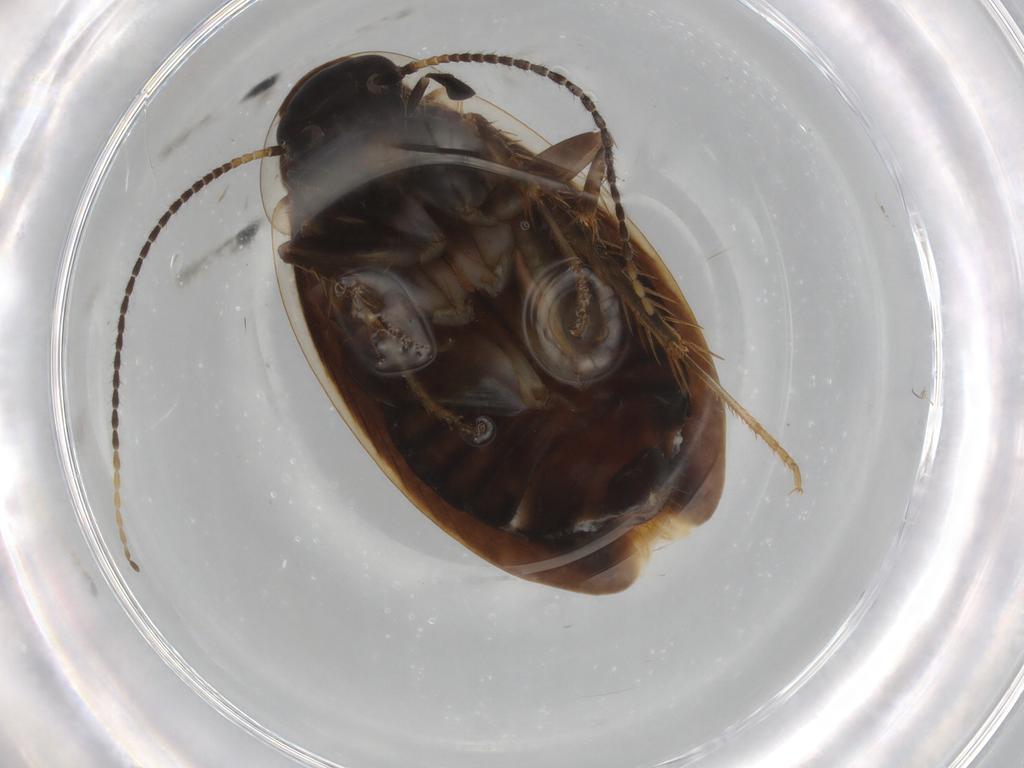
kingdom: Animalia
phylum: Arthropoda
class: Insecta
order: Blattodea
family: Ectobiidae
